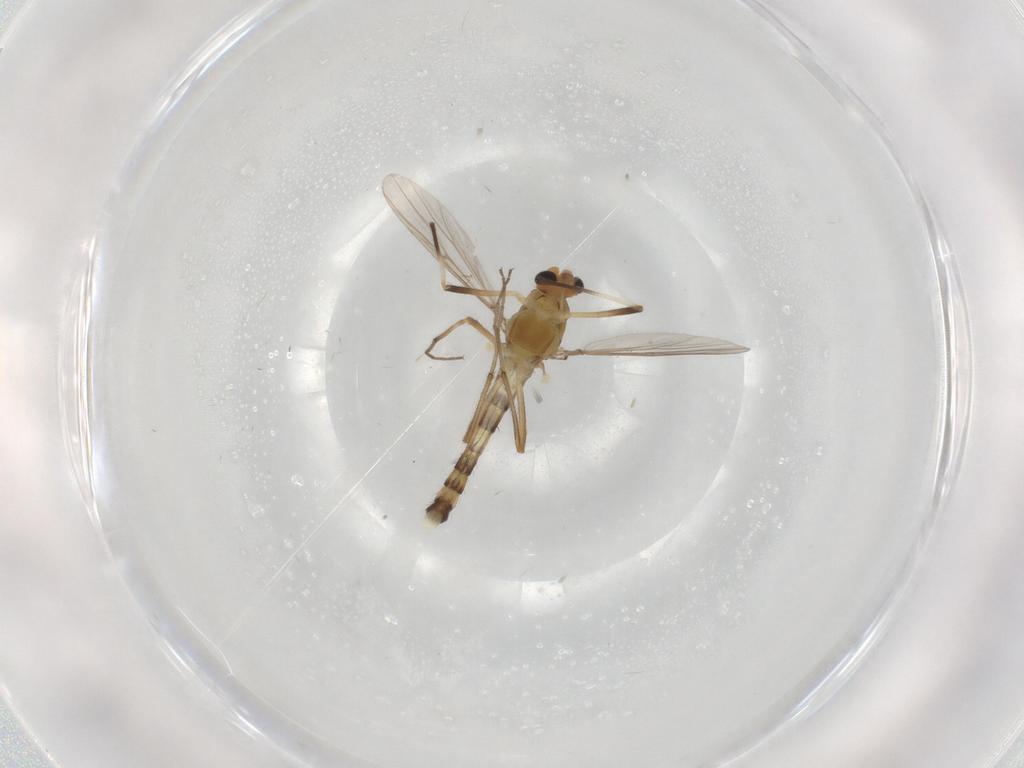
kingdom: Animalia
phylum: Arthropoda
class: Insecta
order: Diptera
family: Chironomidae
